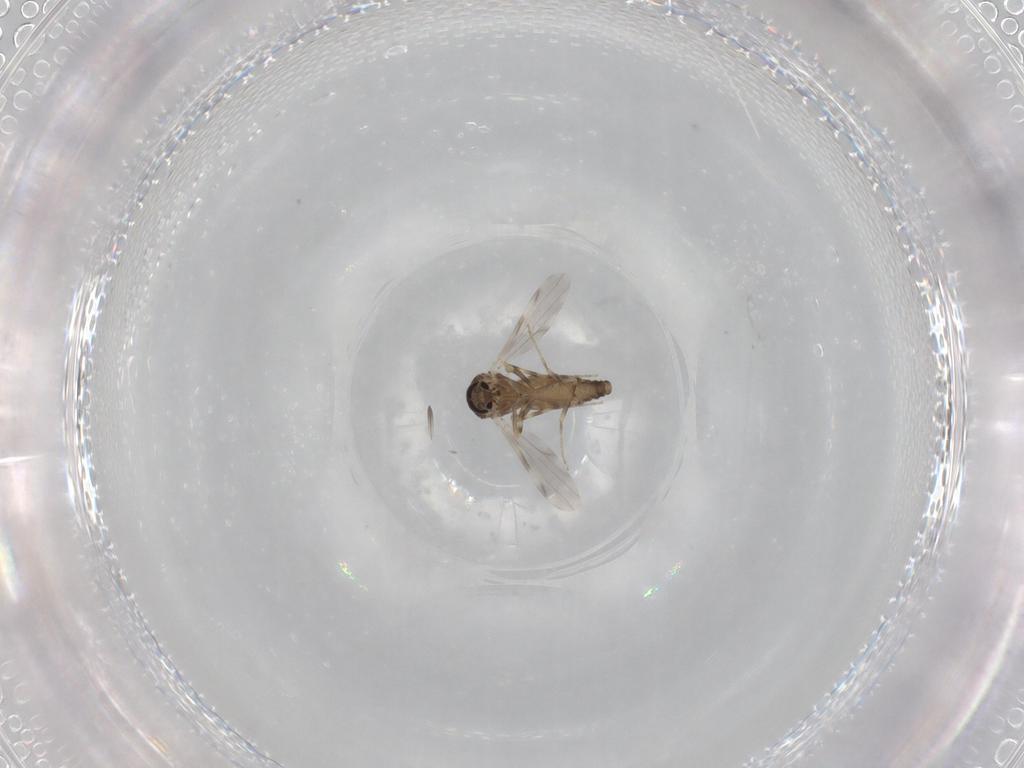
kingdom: Animalia
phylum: Arthropoda
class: Insecta
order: Diptera
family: Ceratopogonidae
